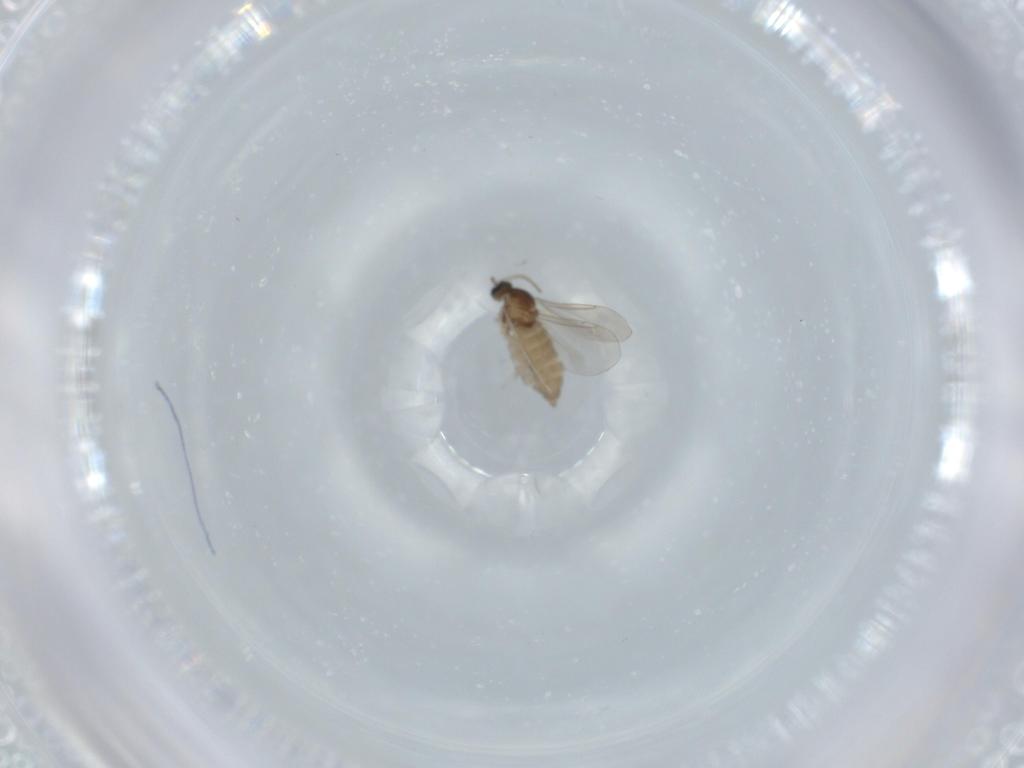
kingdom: Animalia
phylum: Arthropoda
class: Insecta
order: Diptera
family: Cecidomyiidae
